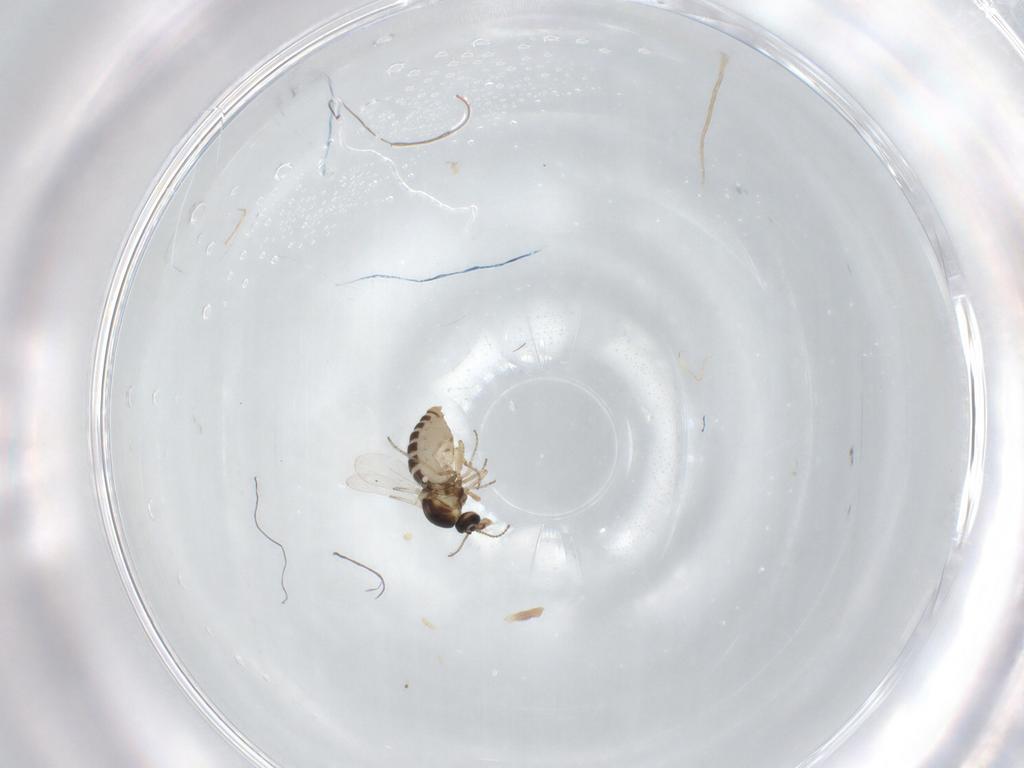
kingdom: Animalia
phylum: Arthropoda
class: Insecta
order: Diptera
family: Ceratopogonidae
